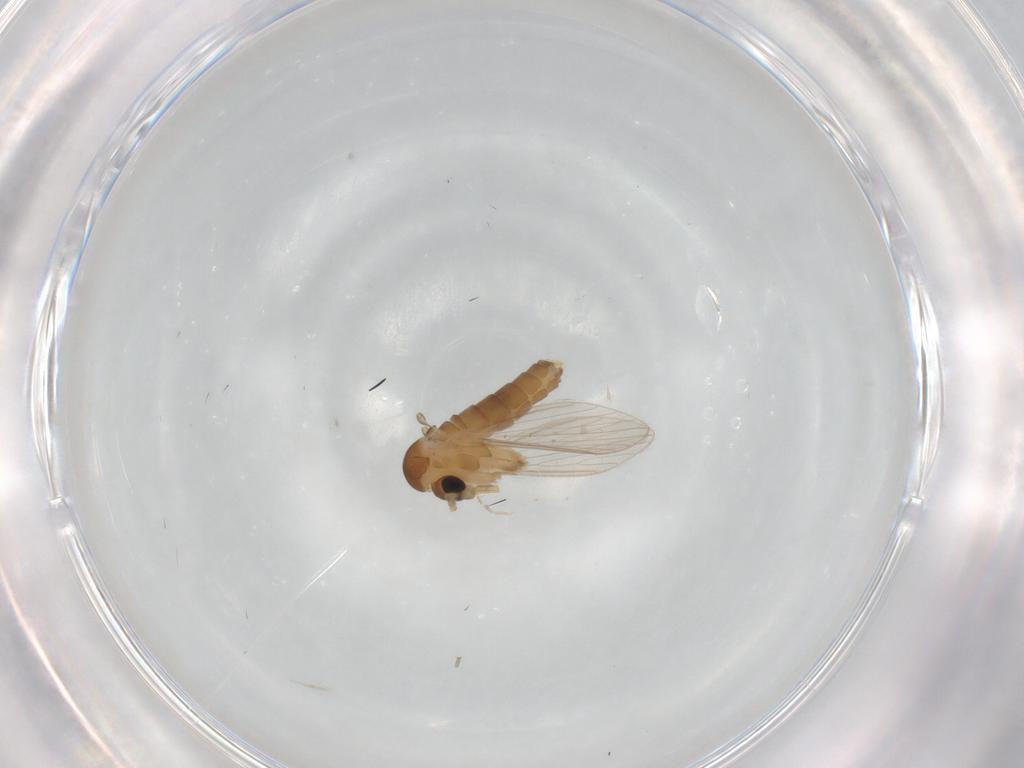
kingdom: Animalia
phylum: Arthropoda
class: Insecta
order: Diptera
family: Psychodidae
